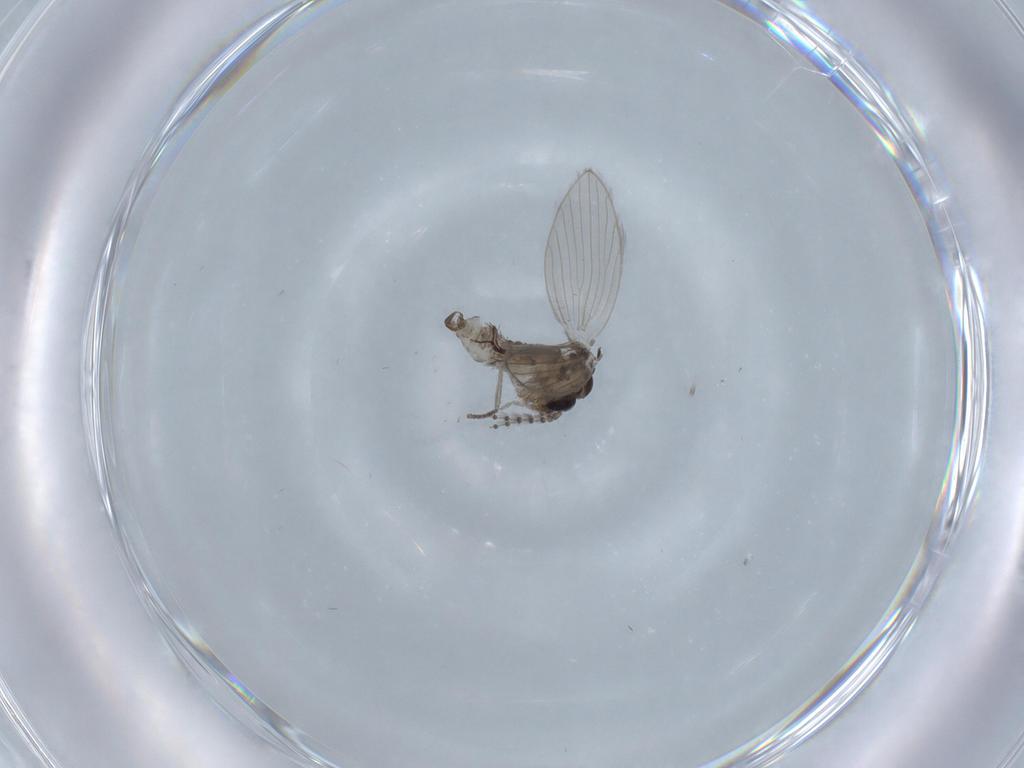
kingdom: Animalia
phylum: Arthropoda
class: Insecta
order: Diptera
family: Psychodidae
